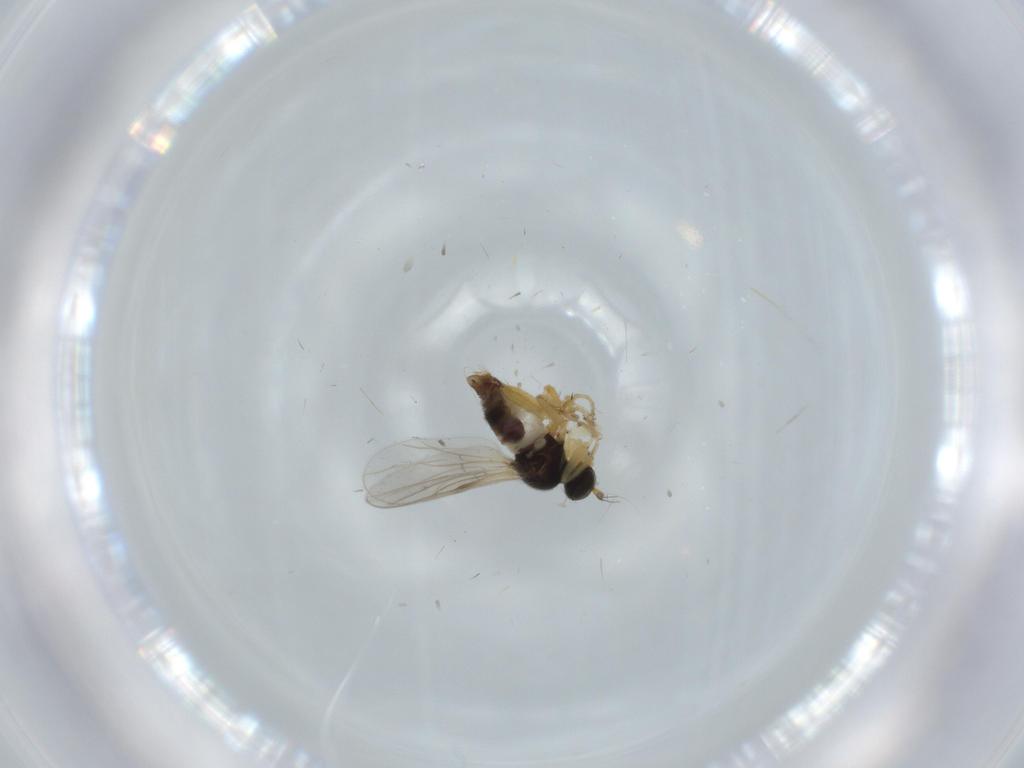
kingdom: Animalia
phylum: Arthropoda
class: Insecta
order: Diptera
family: Hybotidae
